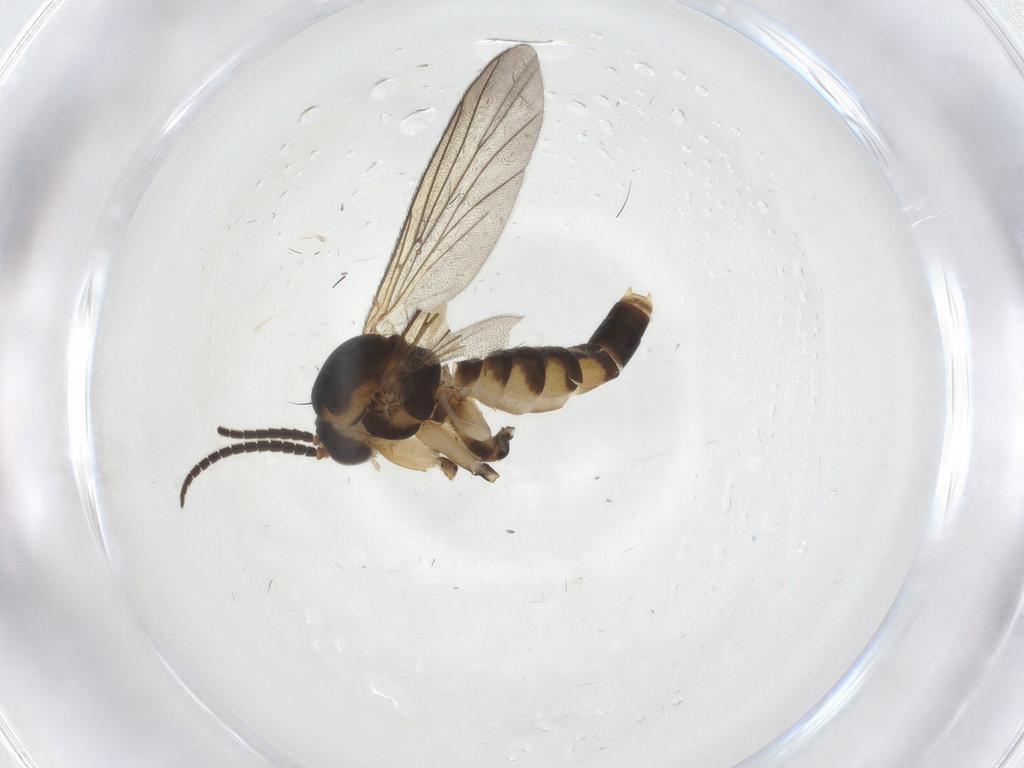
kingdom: Animalia
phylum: Arthropoda
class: Insecta
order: Diptera
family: Mycetophilidae
